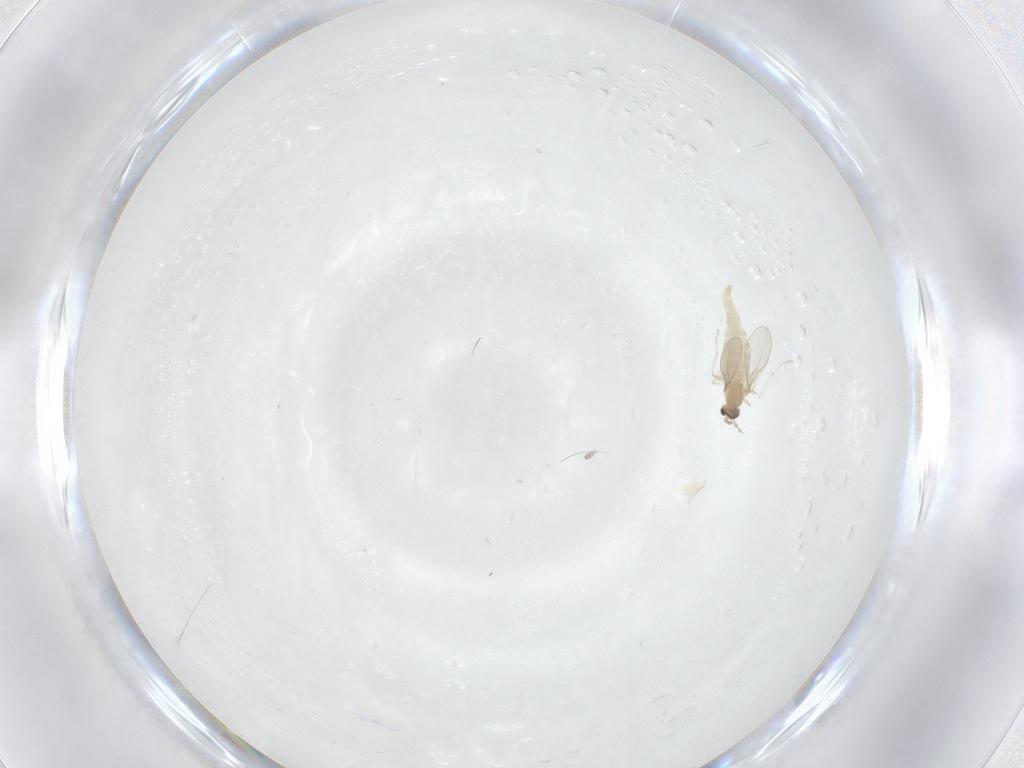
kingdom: Animalia
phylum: Arthropoda
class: Insecta
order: Diptera
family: Cecidomyiidae
